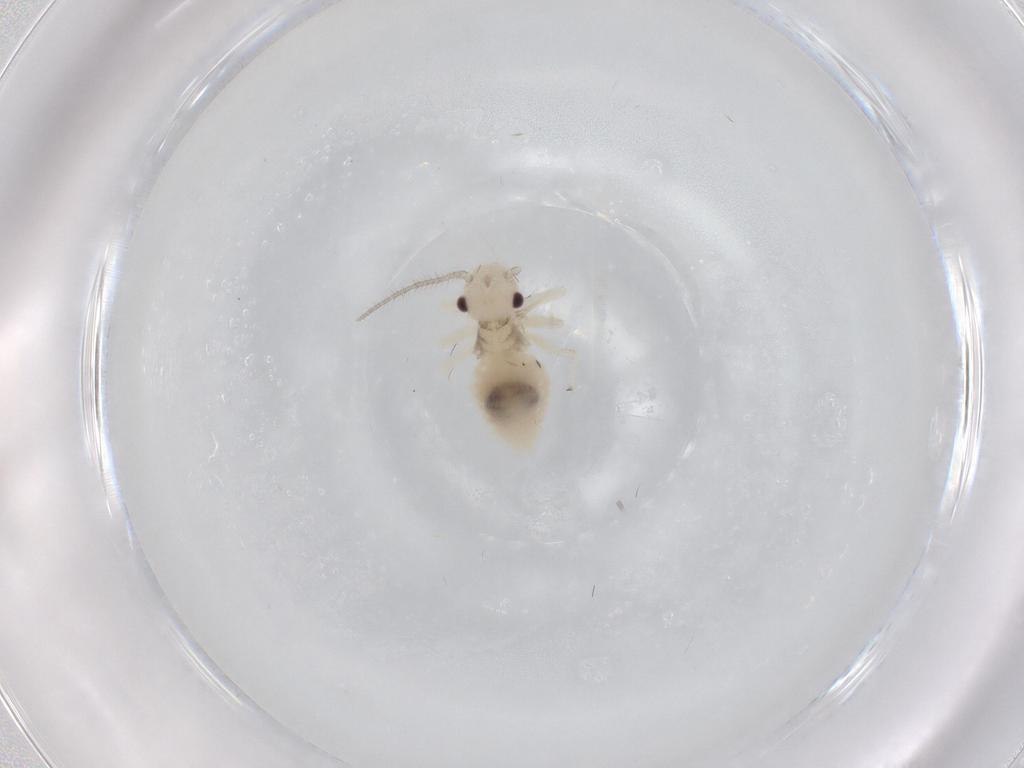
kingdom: Animalia
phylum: Arthropoda
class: Insecta
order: Psocodea
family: Amphipsocidae
